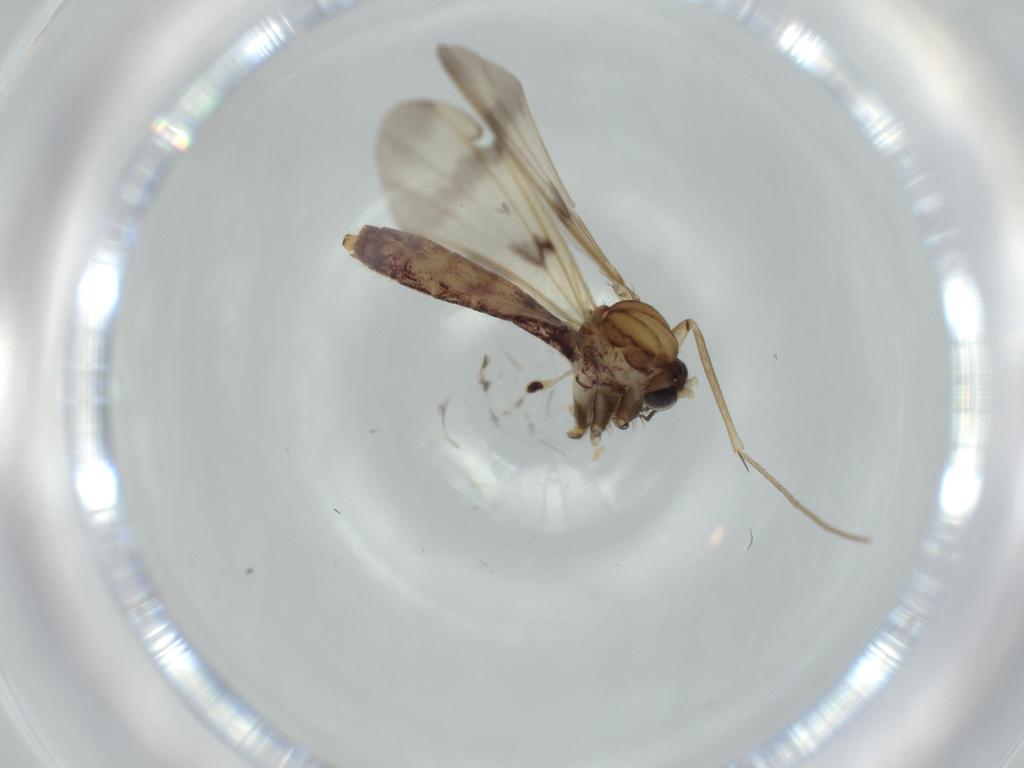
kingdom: Animalia
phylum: Arthropoda
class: Insecta
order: Diptera
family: Mycetophilidae
